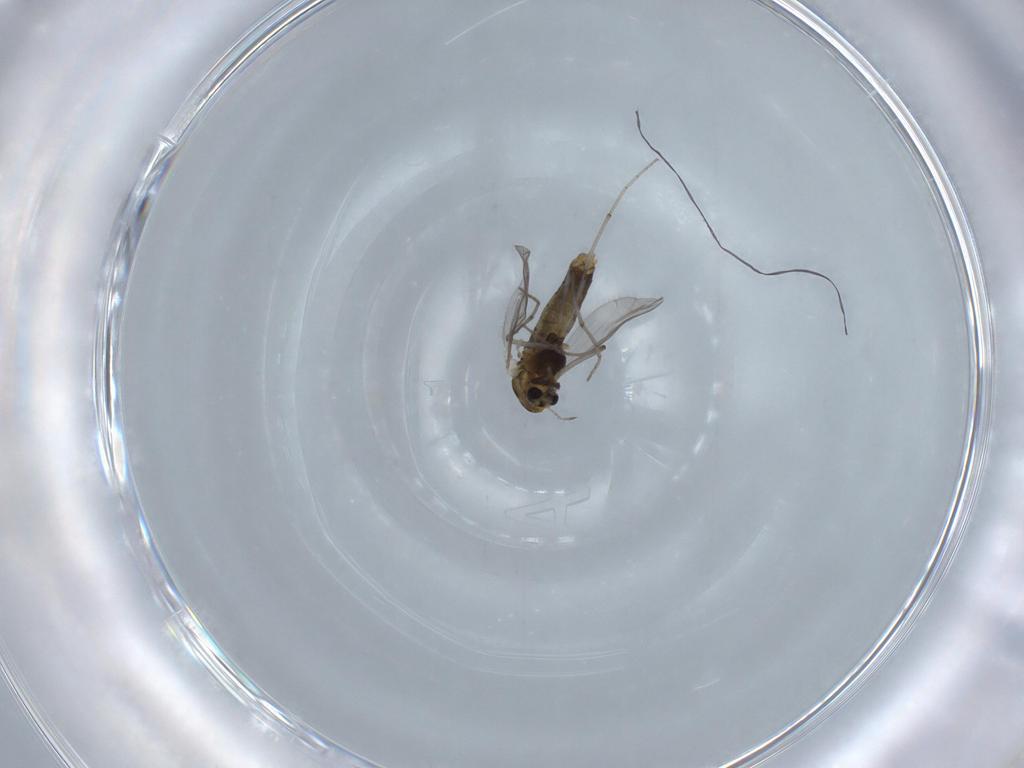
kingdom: Animalia
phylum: Arthropoda
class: Insecta
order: Diptera
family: Chironomidae
